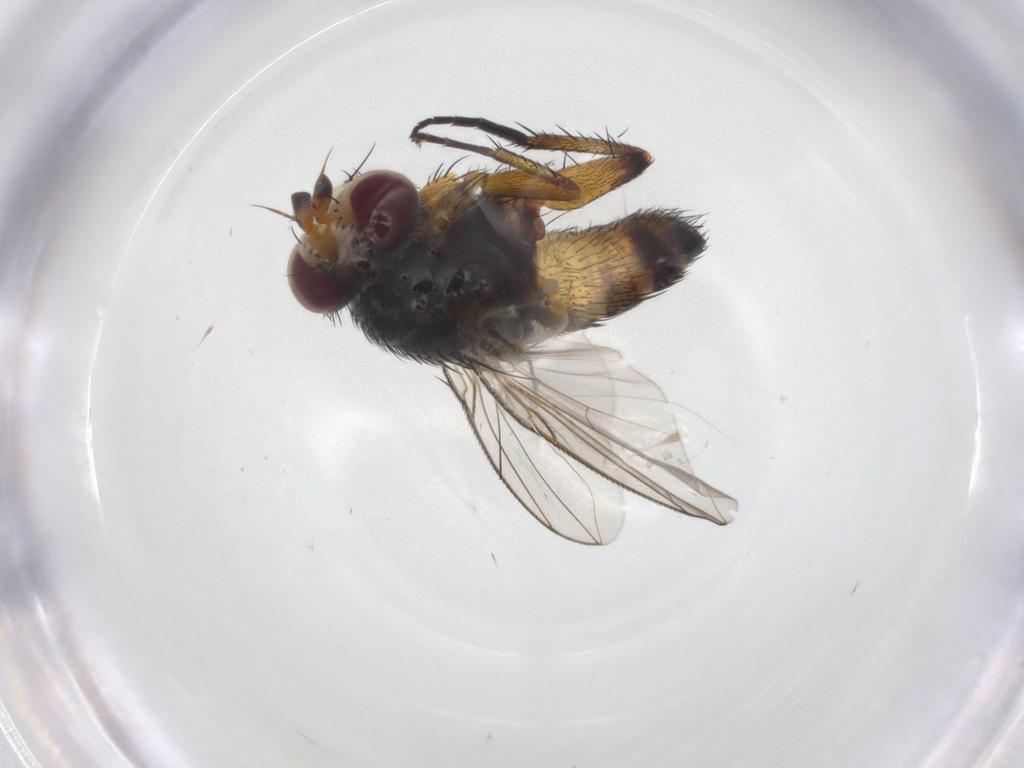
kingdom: Animalia
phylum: Arthropoda
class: Insecta
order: Diptera
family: Tachinidae
